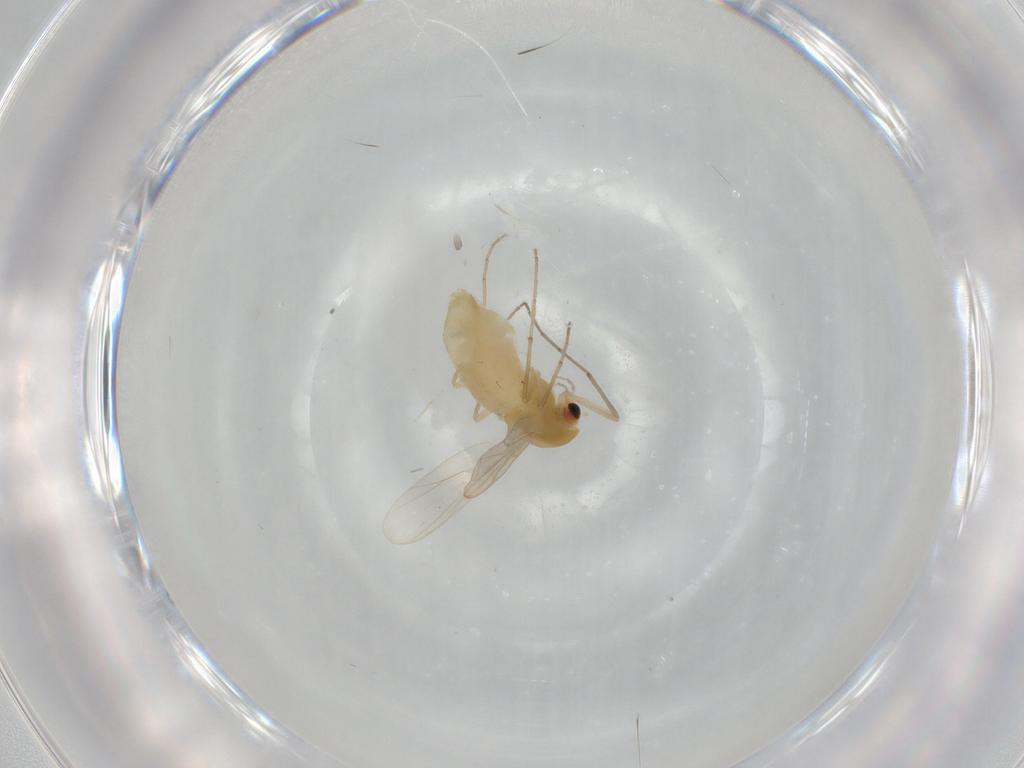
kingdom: Animalia
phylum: Arthropoda
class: Insecta
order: Diptera
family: Chironomidae
